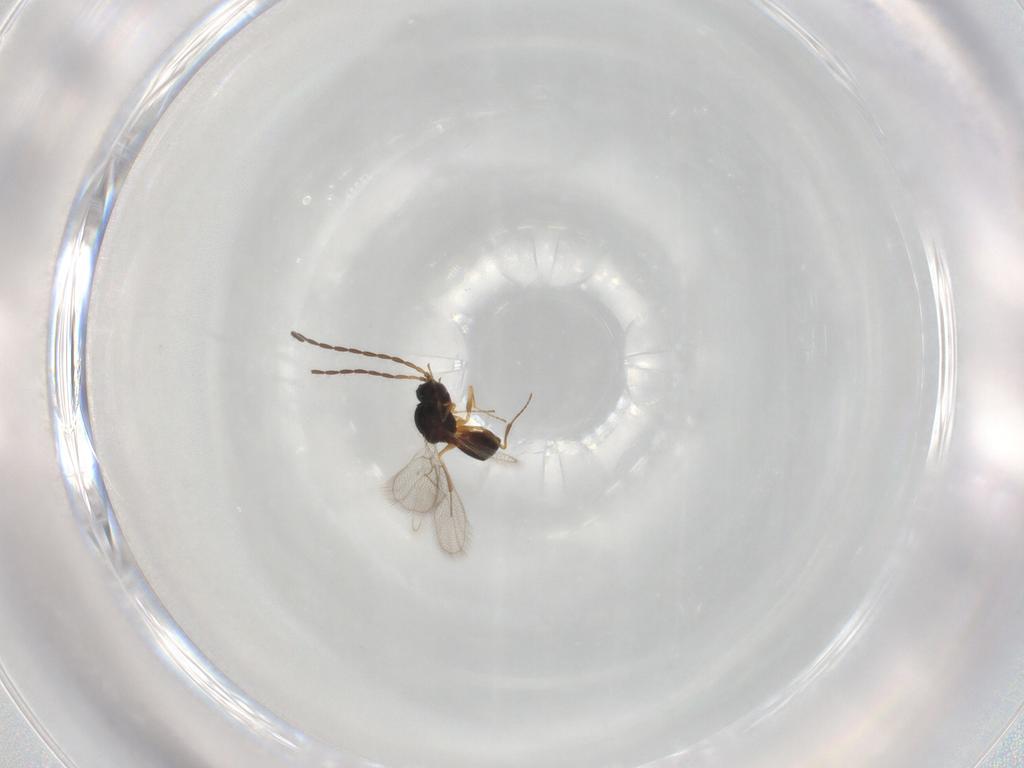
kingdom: Animalia
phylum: Arthropoda
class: Insecta
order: Hymenoptera
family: Figitidae
